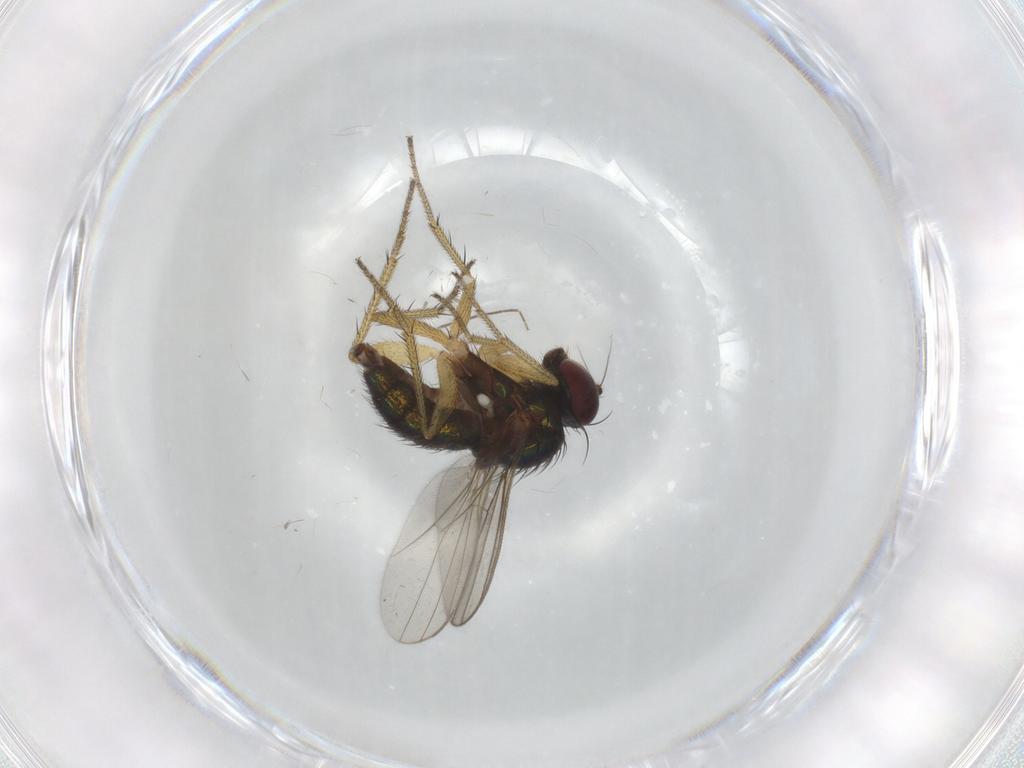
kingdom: Animalia
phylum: Arthropoda
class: Insecta
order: Diptera
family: Dolichopodidae
